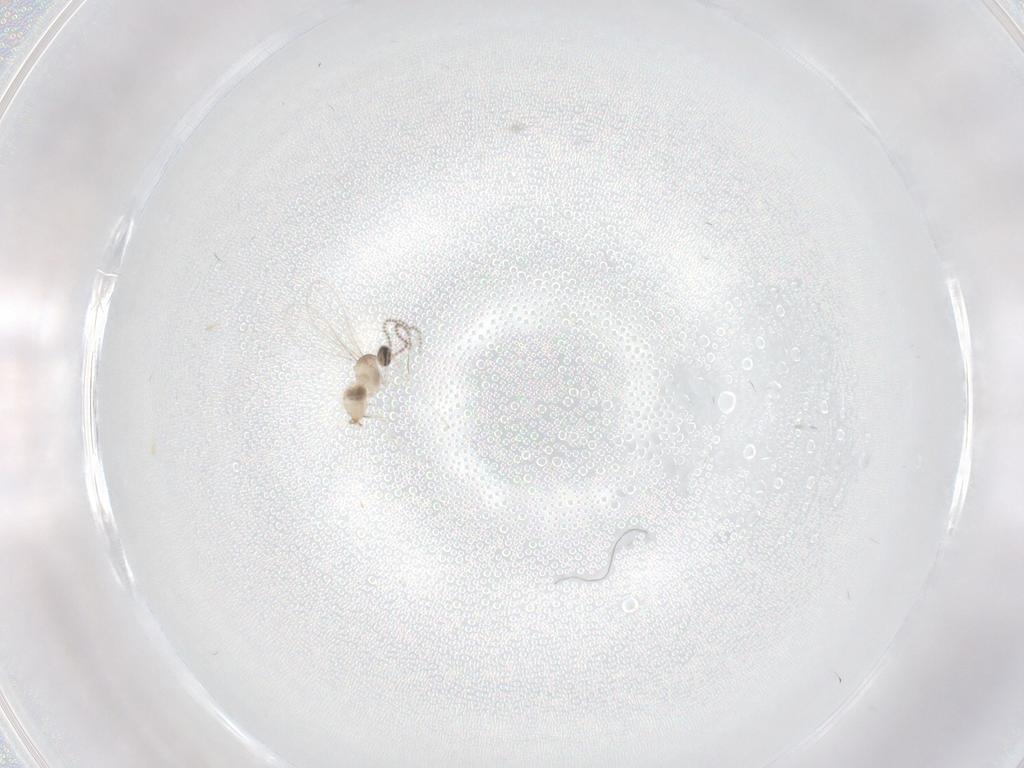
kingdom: Animalia
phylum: Arthropoda
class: Insecta
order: Diptera
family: Cecidomyiidae
